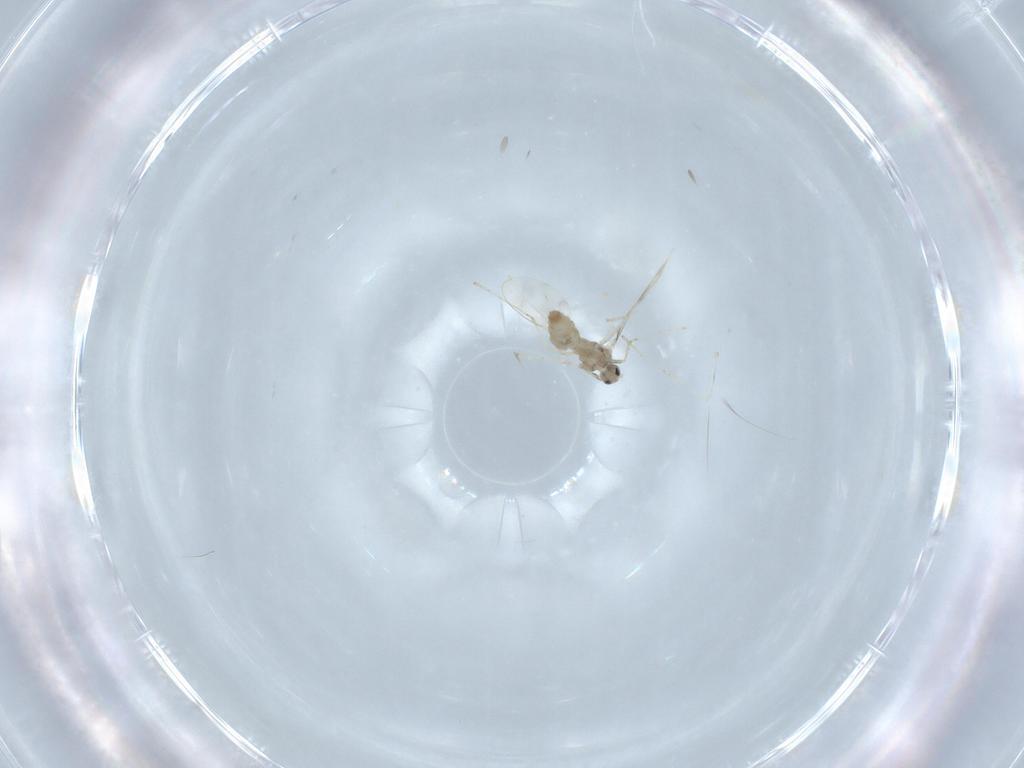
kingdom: Animalia
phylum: Arthropoda
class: Insecta
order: Diptera
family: Cecidomyiidae
